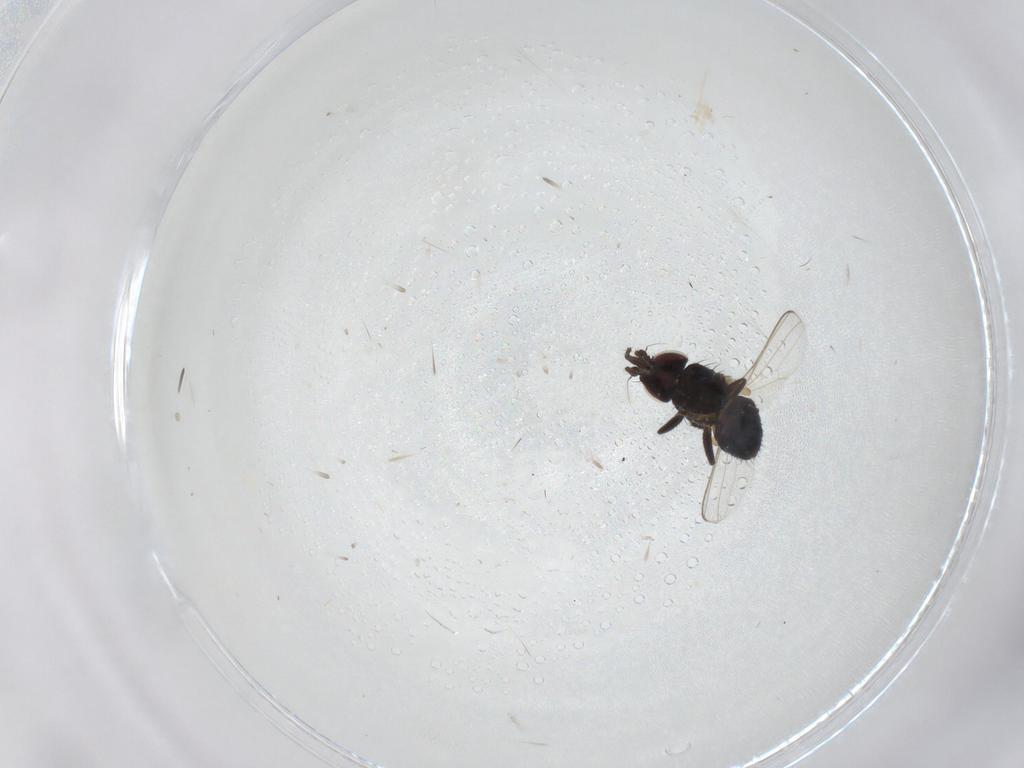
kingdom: Animalia
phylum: Arthropoda
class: Insecta
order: Diptera
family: Milichiidae
